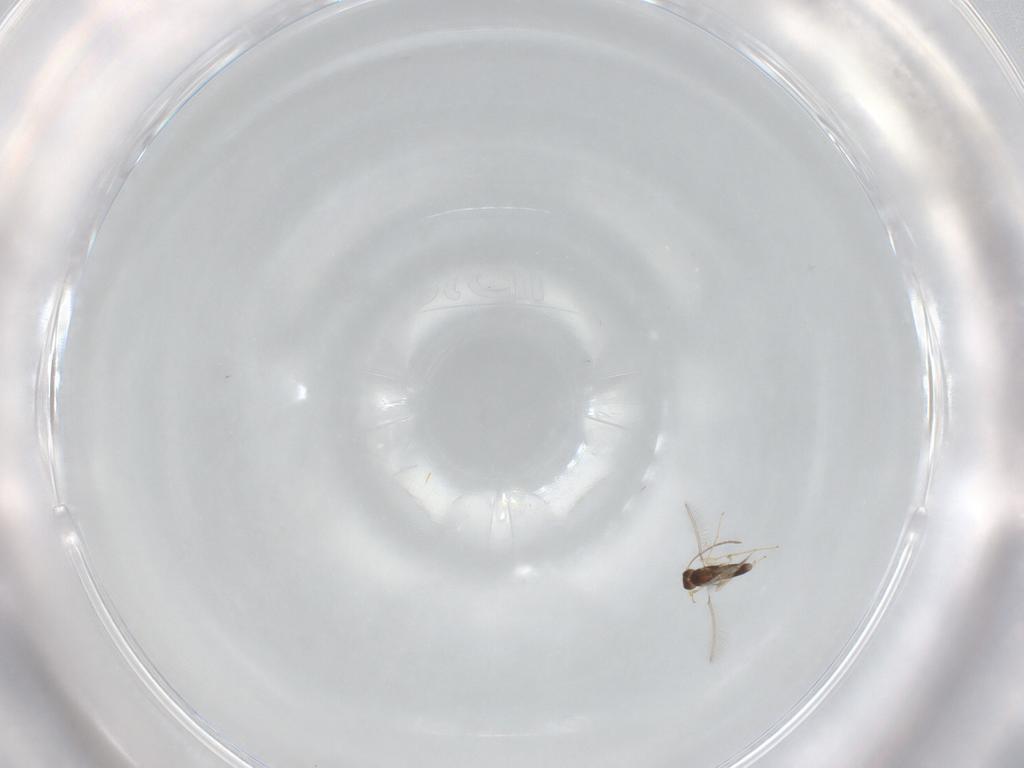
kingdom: Animalia
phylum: Arthropoda
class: Insecta
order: Hymenoptera
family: Mymaridae
